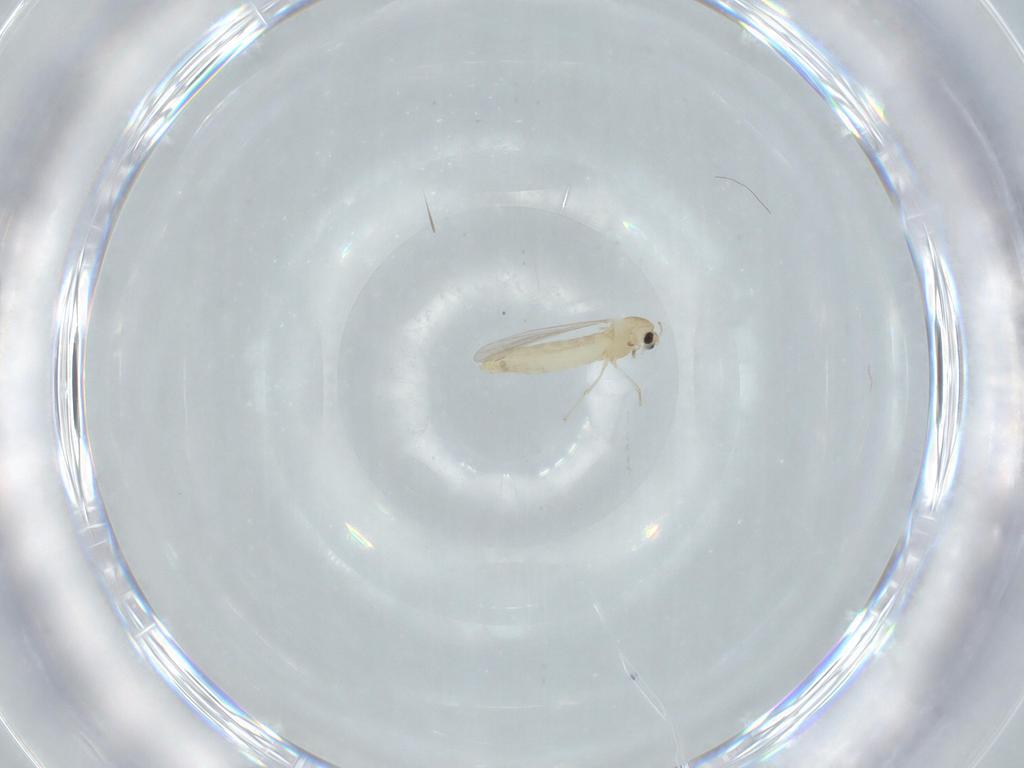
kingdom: Animalia
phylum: Arthropoda
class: Insecta
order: Diptera
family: Chironomidae
